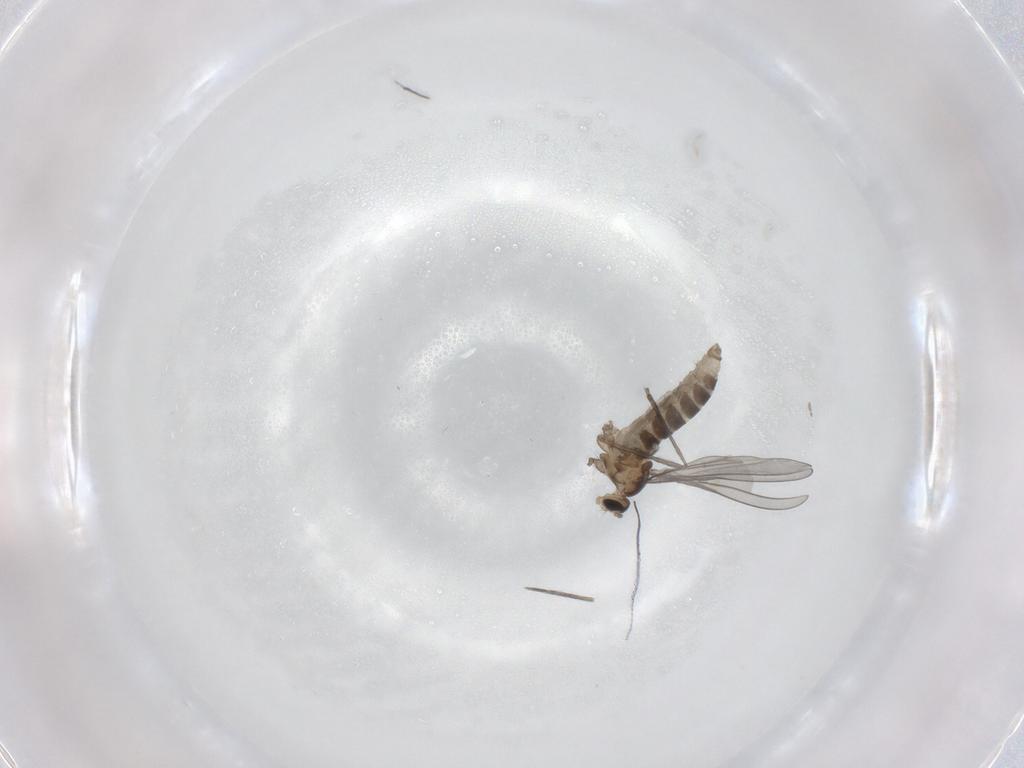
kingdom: Animalia
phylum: Arthropoda
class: Insecta
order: Diptera
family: Cecidomyiidae
